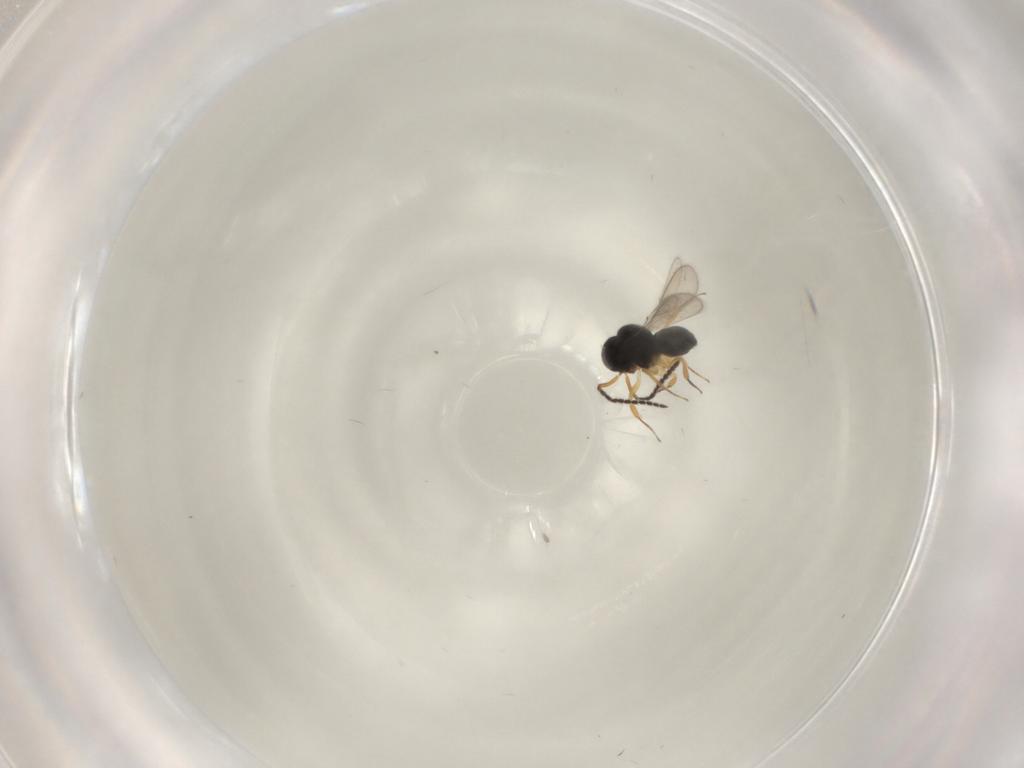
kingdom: Animalia
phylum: Arthropoda
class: Insecta
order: Hymenoptera
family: Scelionidae
